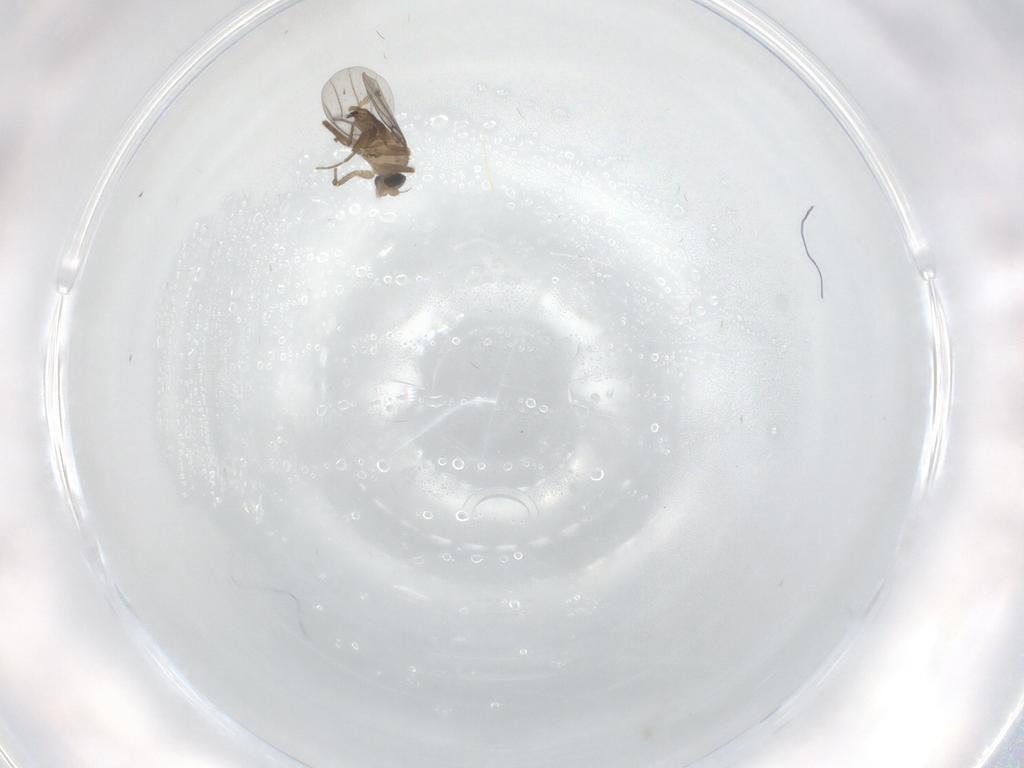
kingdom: Animalia
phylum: Arthropoda
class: Insecta
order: Diptera
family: Phoridae
